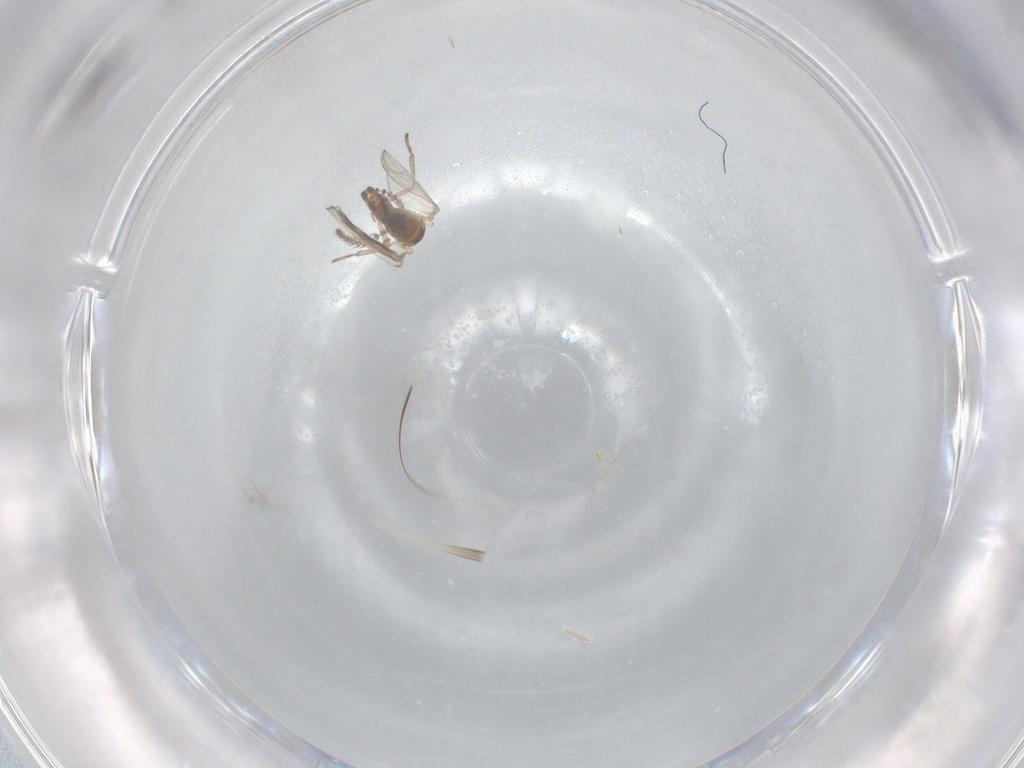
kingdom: Animalia
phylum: Arthropoda
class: Insecta
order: Diptera
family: Psychodidae
